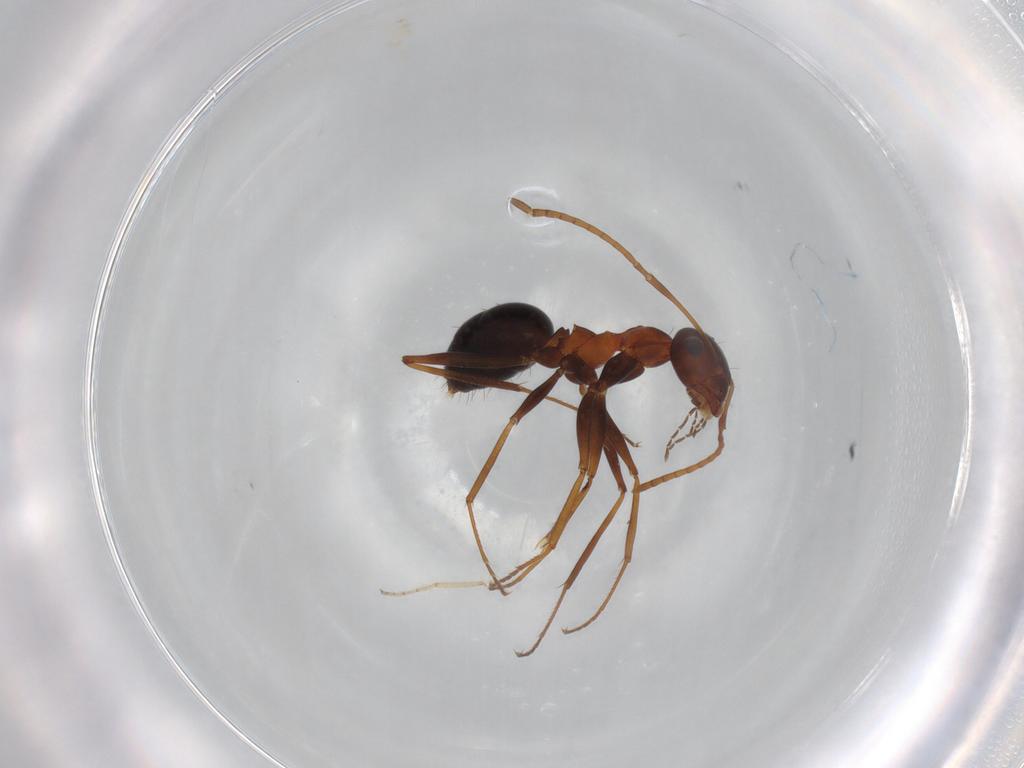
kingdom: Animalia
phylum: Arthropoda
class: Insecta
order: Hymenoptera
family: Formicidae
